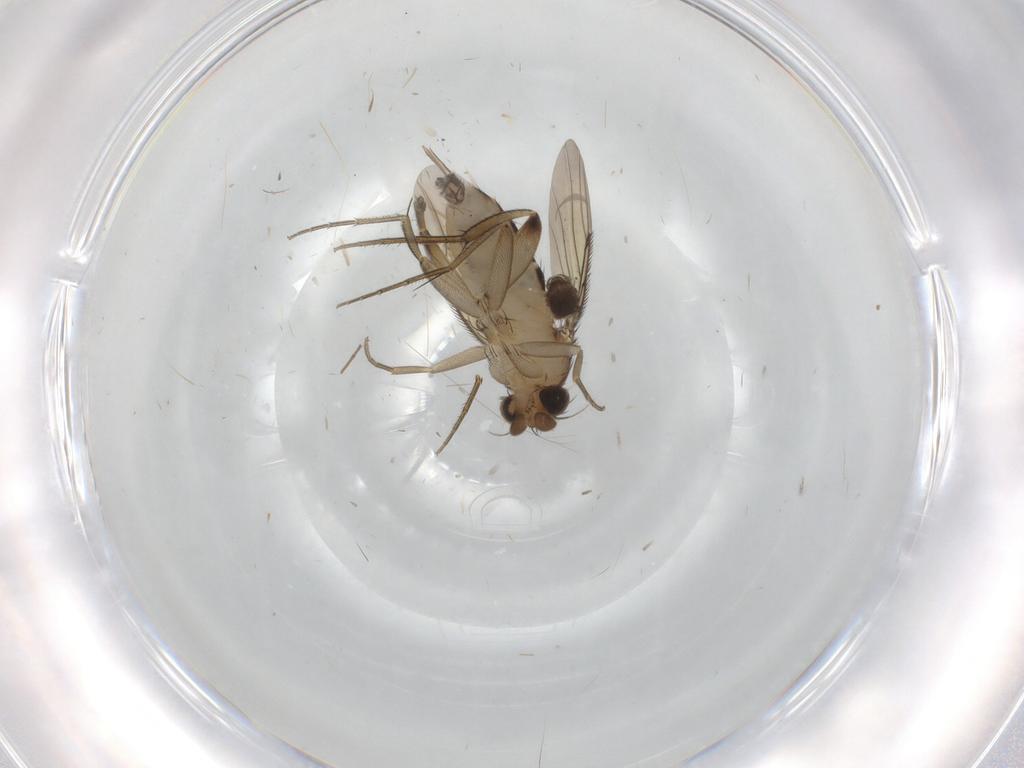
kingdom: Animalia
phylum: Arthropoda
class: Insecta
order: Diptera
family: Phoridae
